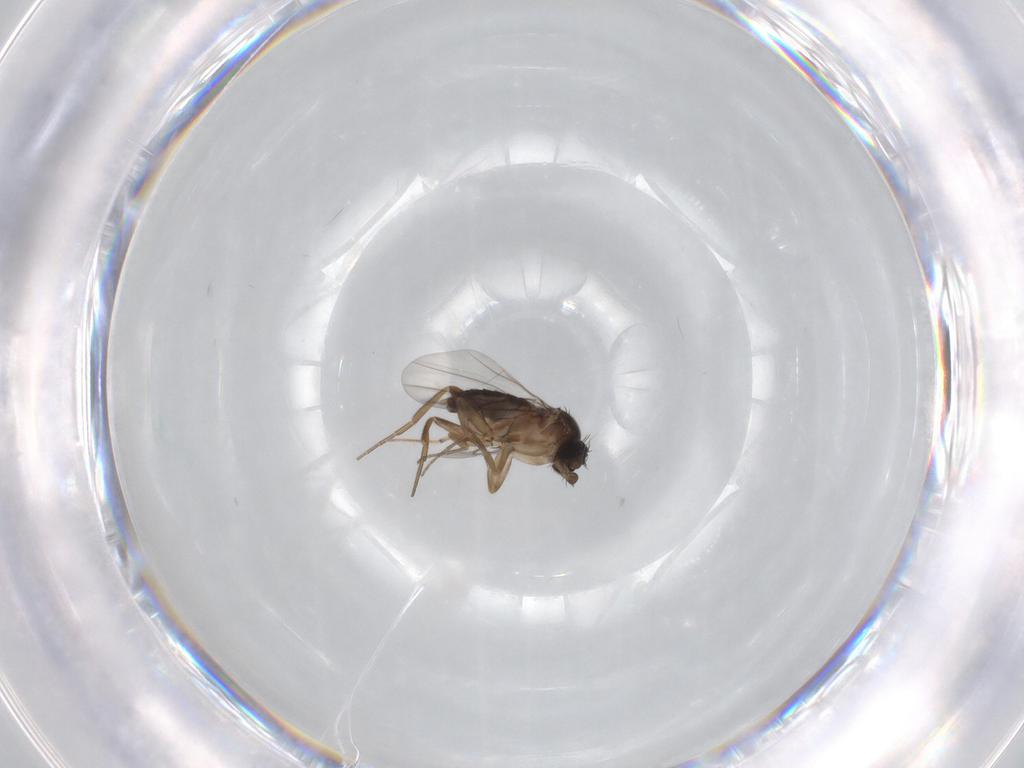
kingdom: Animalia
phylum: Arthropoda
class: Insecta
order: Diptera
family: Phoridae
